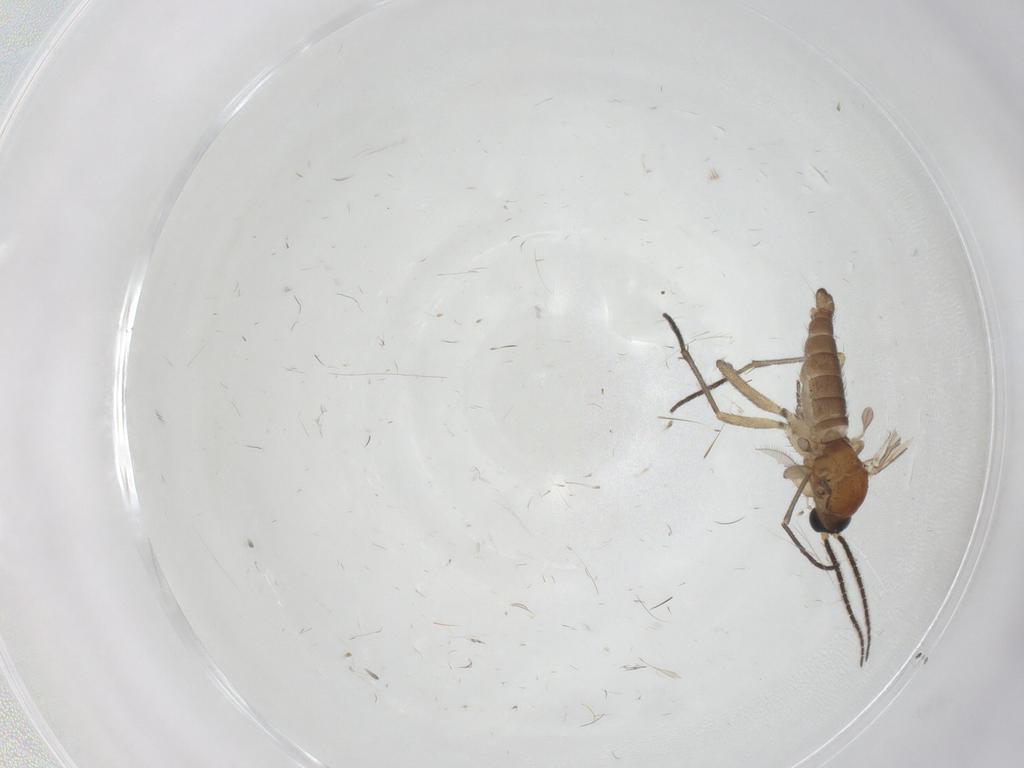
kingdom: Animalia
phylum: Arthropoda
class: Insecta
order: Diptera
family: Sciaridae
